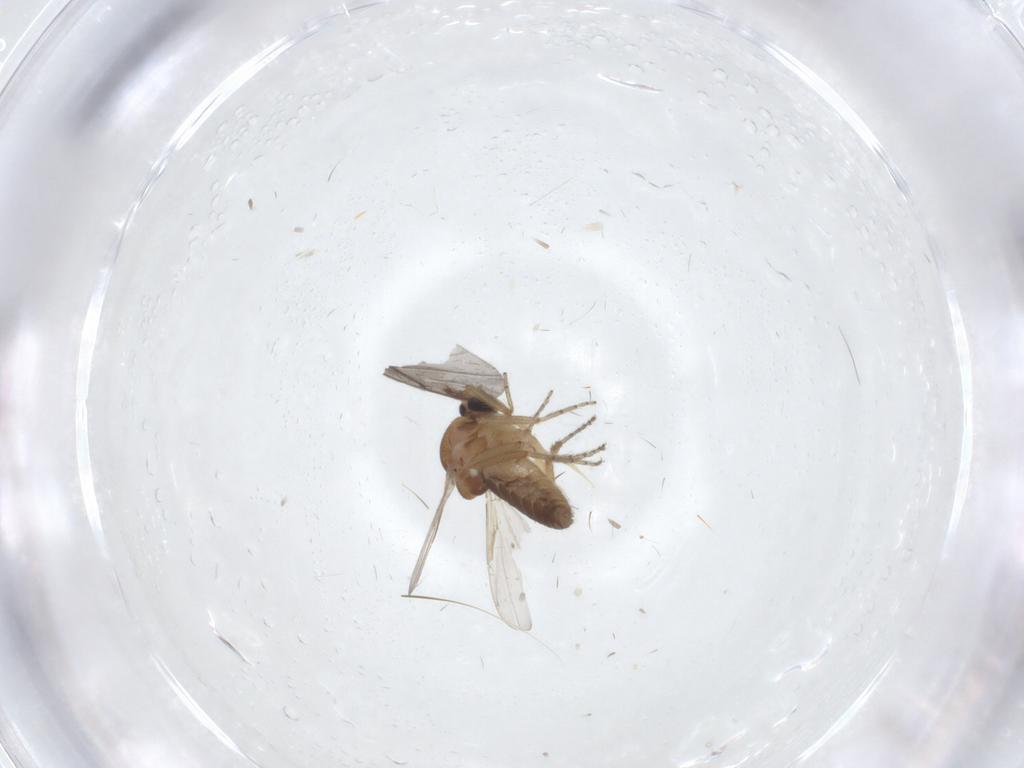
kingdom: Animalia
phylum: Arthropoda
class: Insecta
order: Diptera
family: Ceratopogonidae
